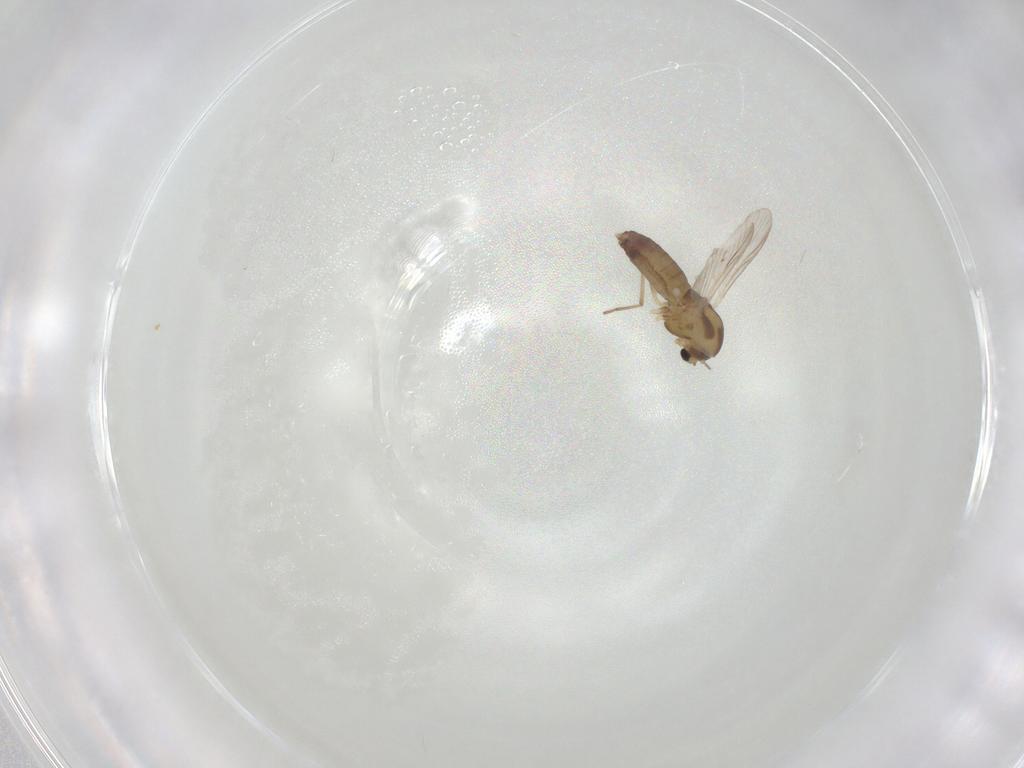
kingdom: Animalia
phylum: Arthropoda
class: Insecta
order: Diptera
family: Chironomidae
